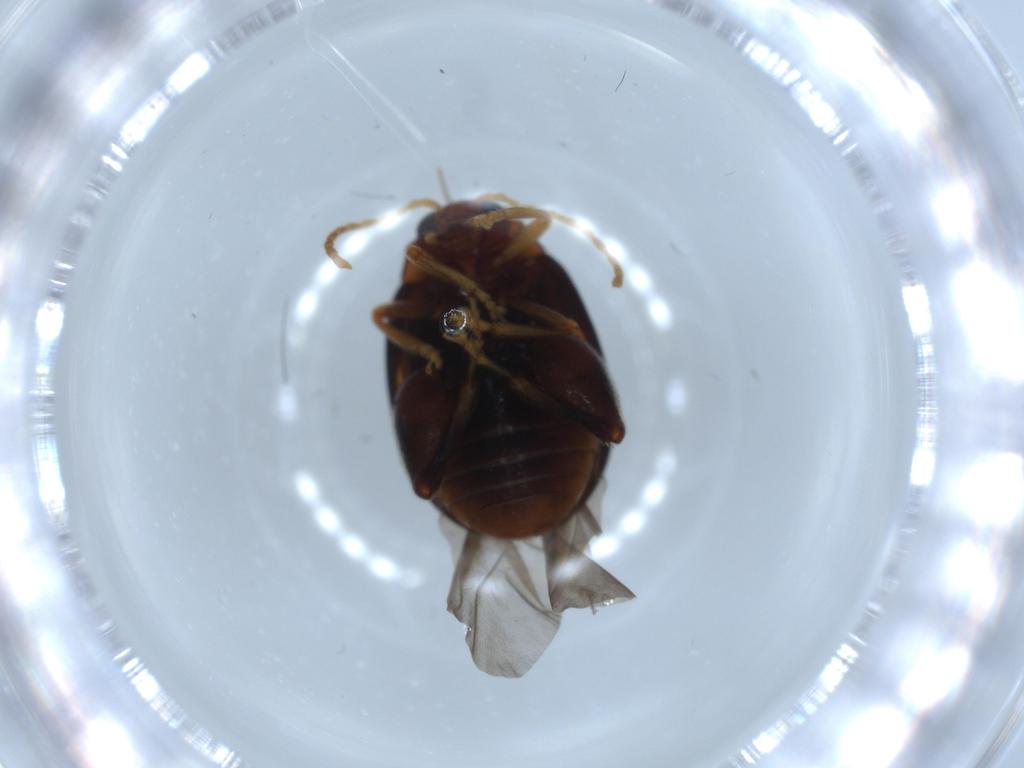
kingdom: Animalia
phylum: Arthropoda
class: Insecta
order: Coleoptera
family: Chrysomelidae
